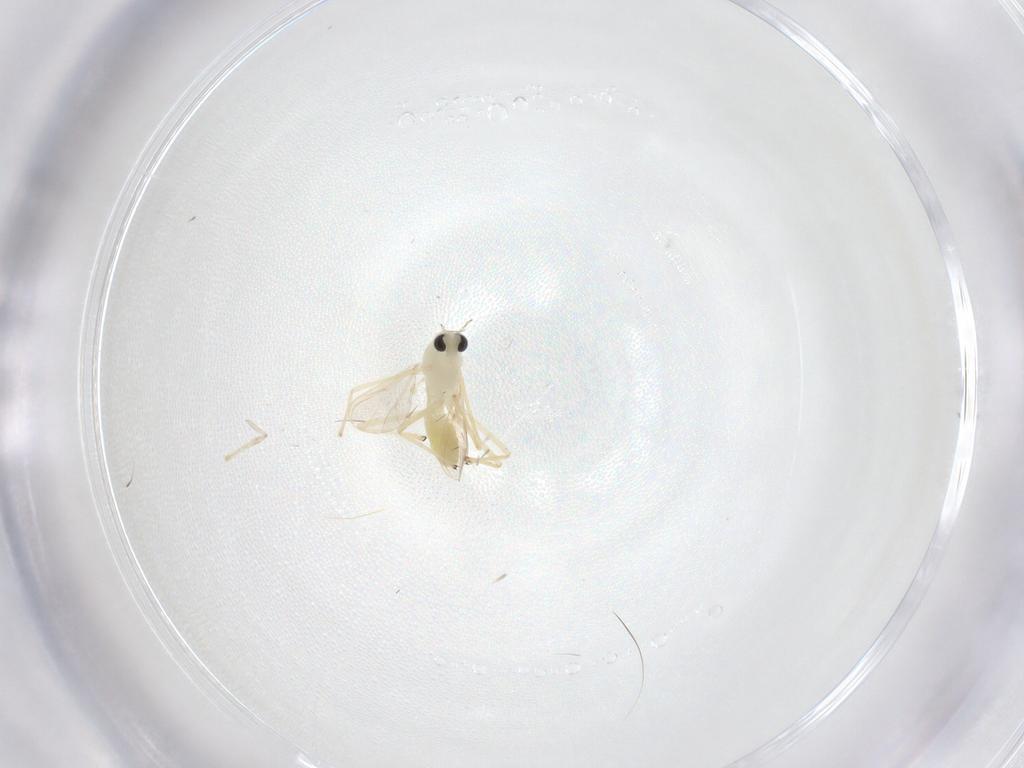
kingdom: Animalia
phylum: Arthropoda
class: Insecta
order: Diptera
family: Chironomidae
